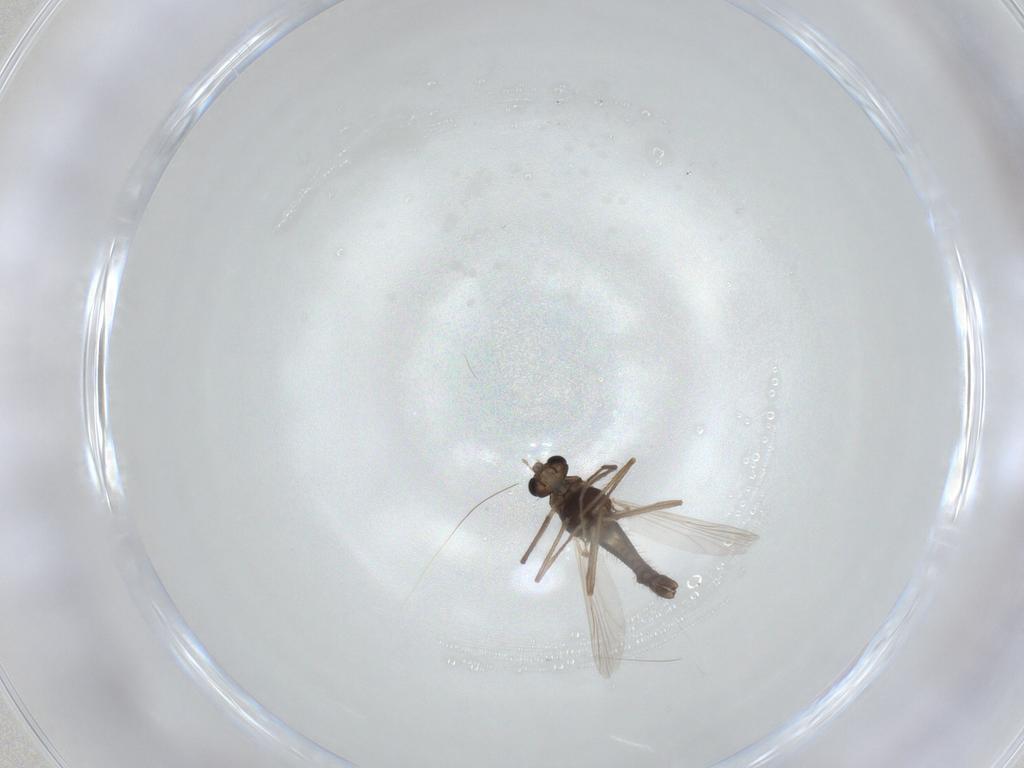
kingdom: Animalia
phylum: Arthropoda
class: Insecta
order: Diptera
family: Chironomidae
